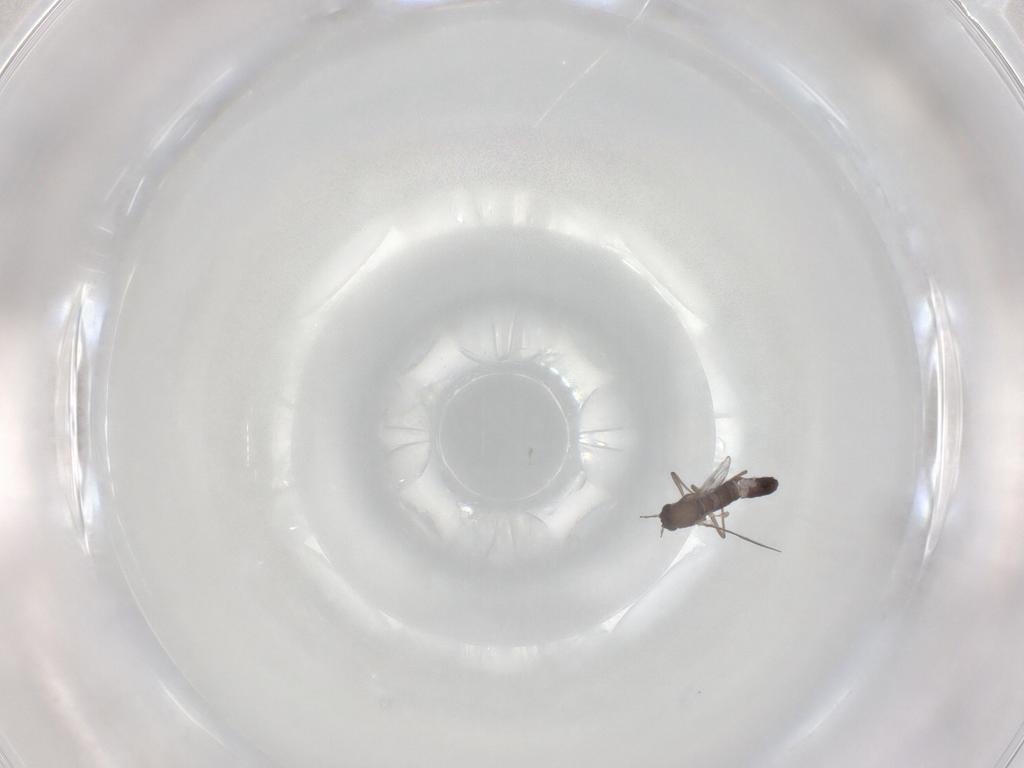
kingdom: Animalia
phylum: Arthropoda
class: Insecta
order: Diptera
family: Chironomidae
